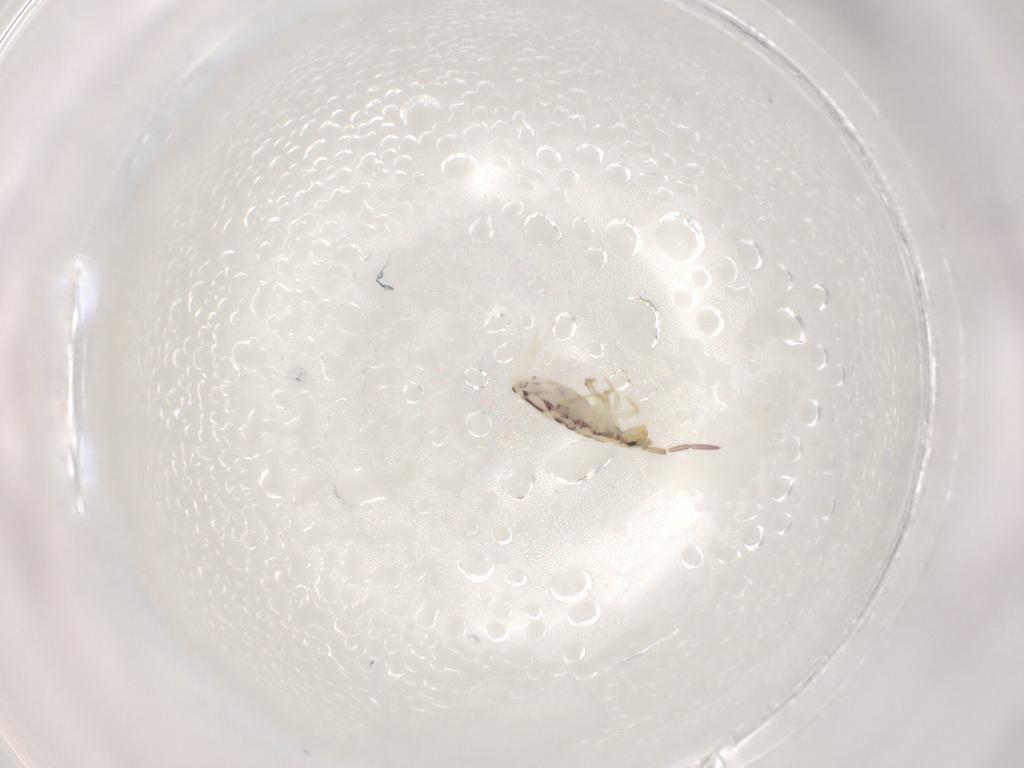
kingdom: Animalia
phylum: Arthropoda
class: Collembola
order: Entomobryomorpha
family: Entomobryidae
